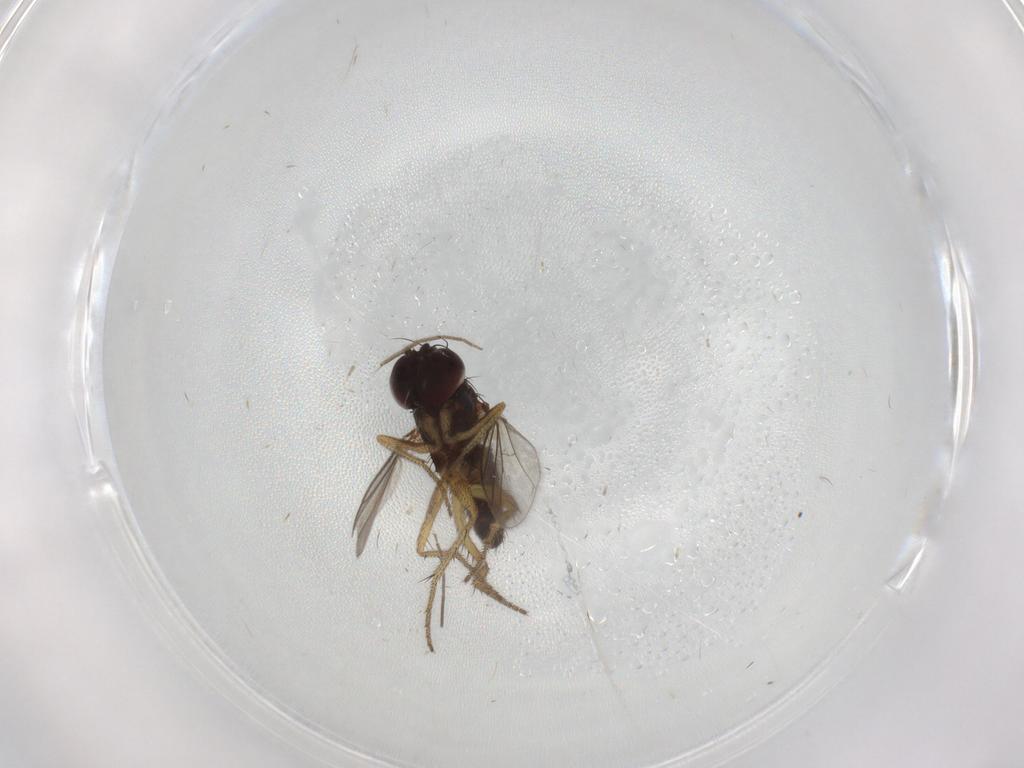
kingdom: Animalia
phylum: Arthropoda
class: Insecta
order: Diptera
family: Chironomidae
